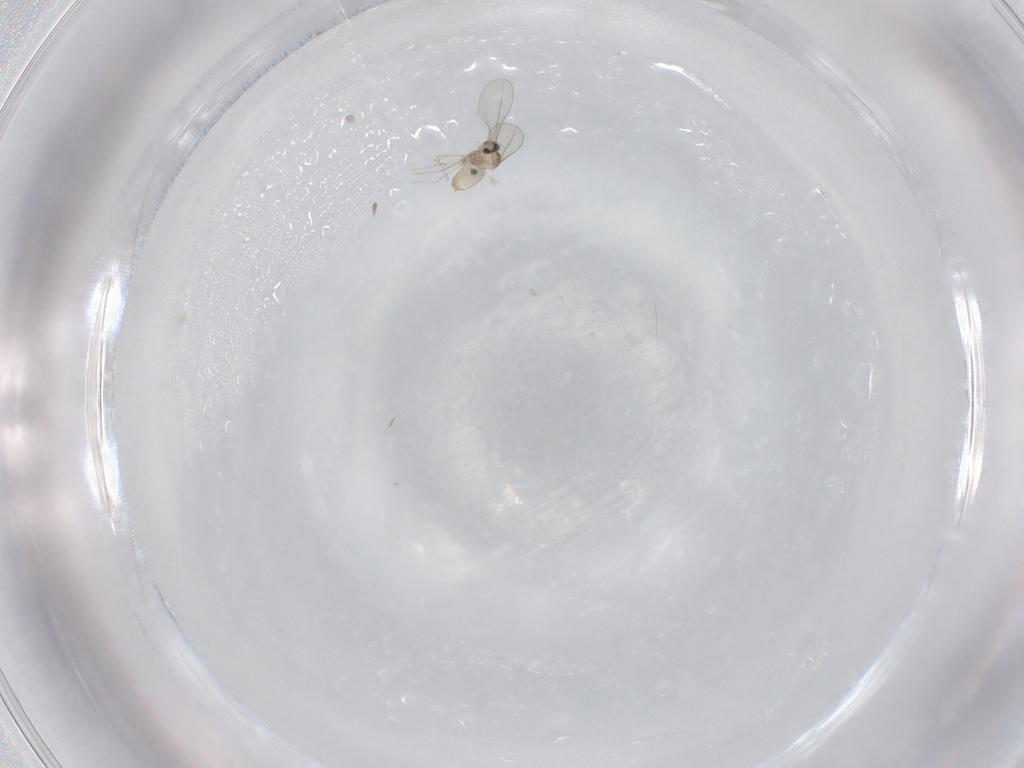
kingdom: Animalia
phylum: Arthropoda
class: Insecta
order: Diptera
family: Cecidomyiidae
